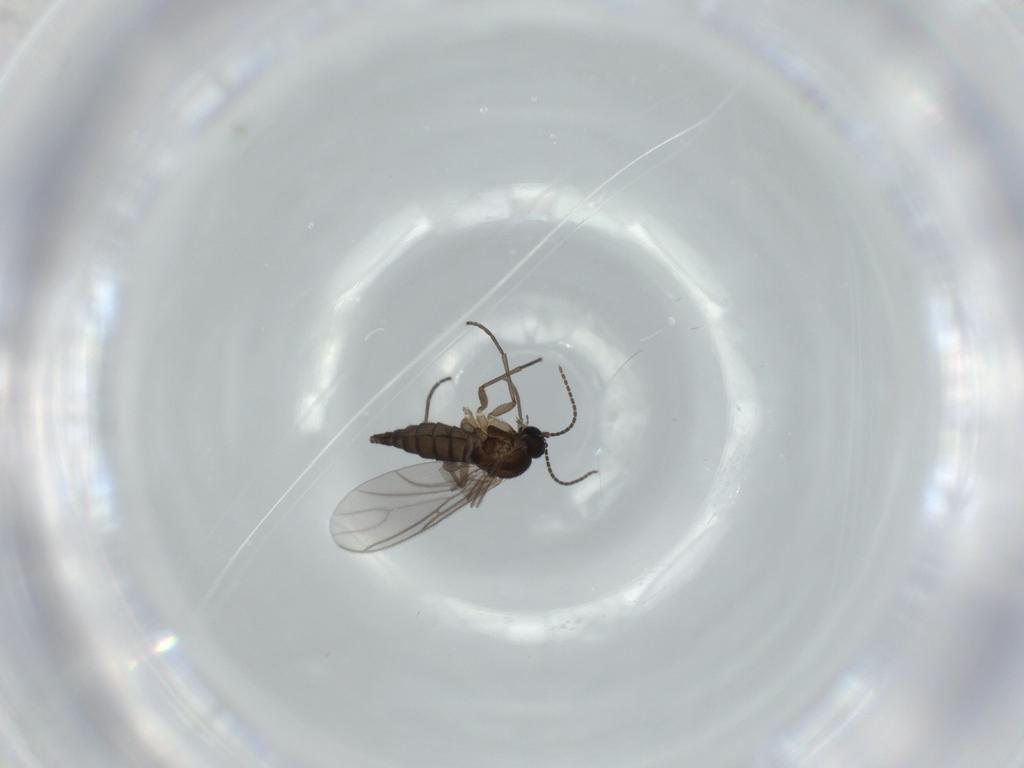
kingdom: Animalia
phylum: Arthropoda
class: Insecta
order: Diptera
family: Sciaridae
